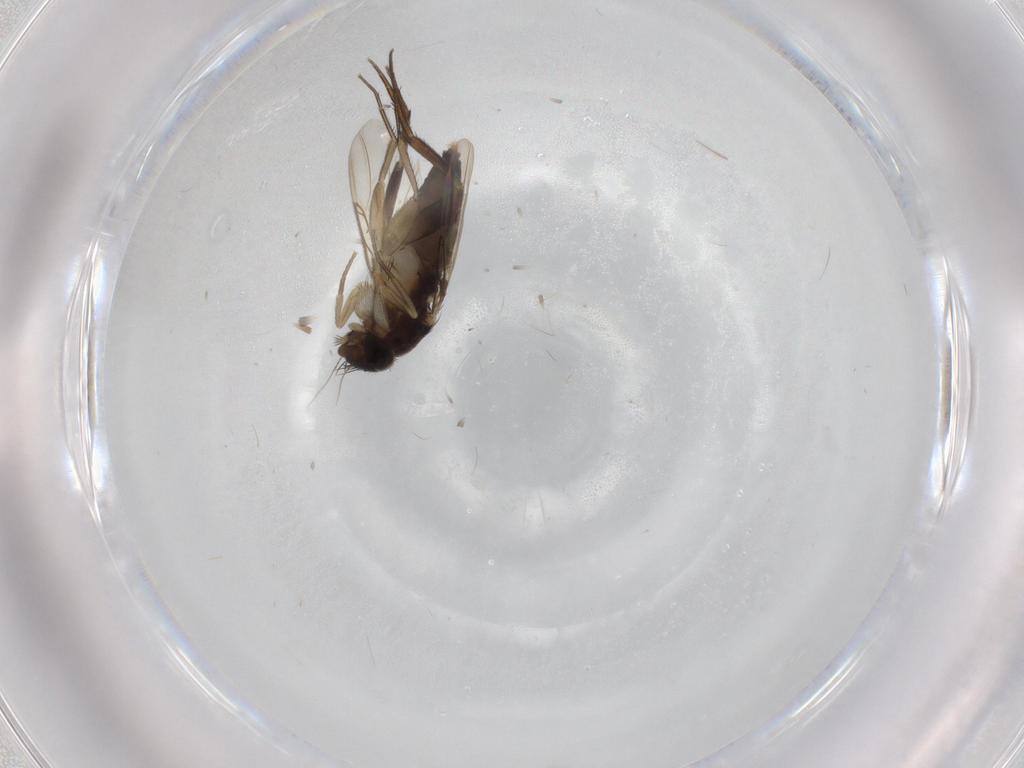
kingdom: Animalia
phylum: Arthropoda
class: Insecta
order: Diptera
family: Phoridae
